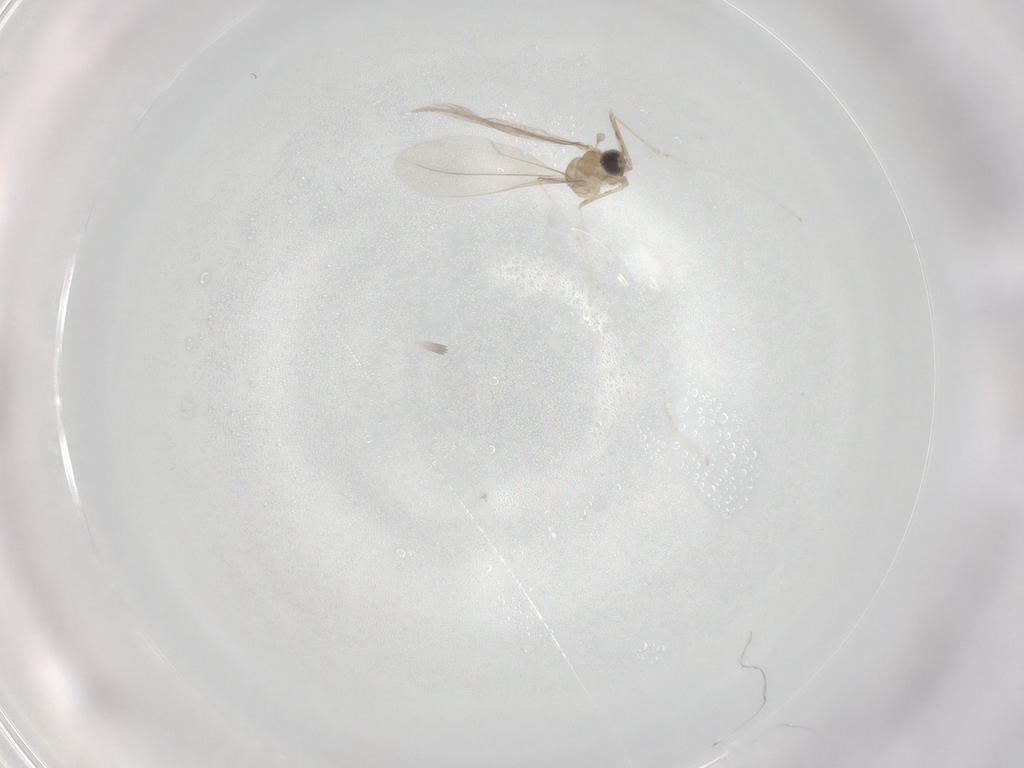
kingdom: Animalia
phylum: Arthropoda
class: Insecta
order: Diptera
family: Cecidomyiidae
